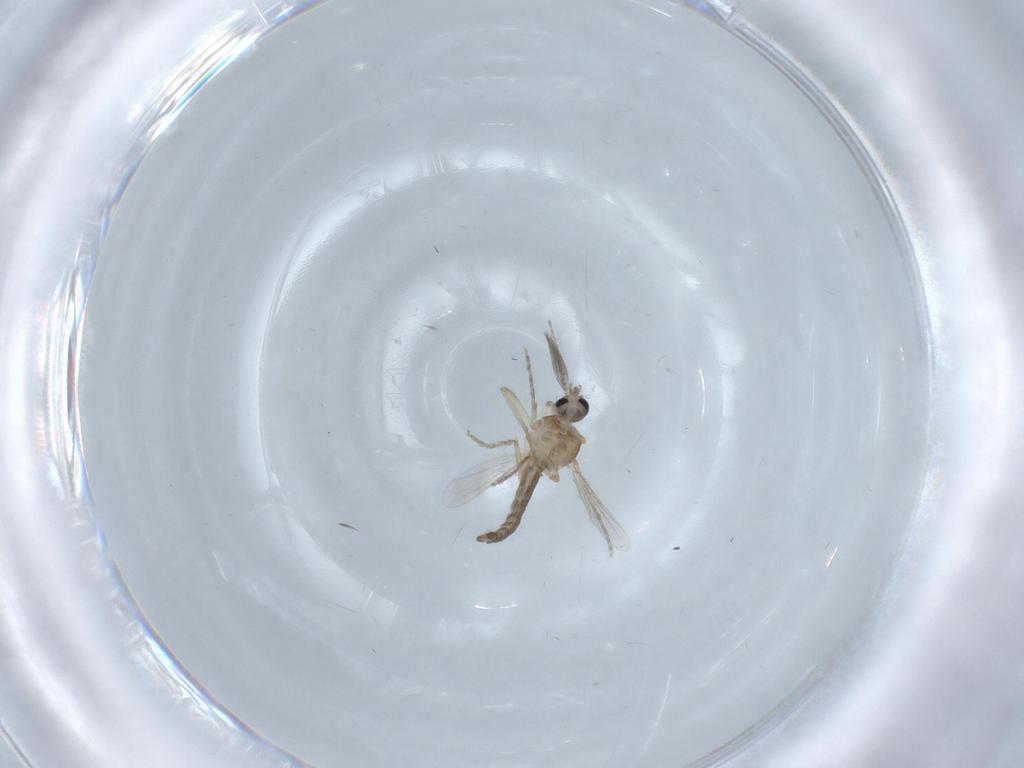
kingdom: Animalia
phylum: Arthropoda
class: Insecta
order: Diptera
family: Ceratopogonidae
